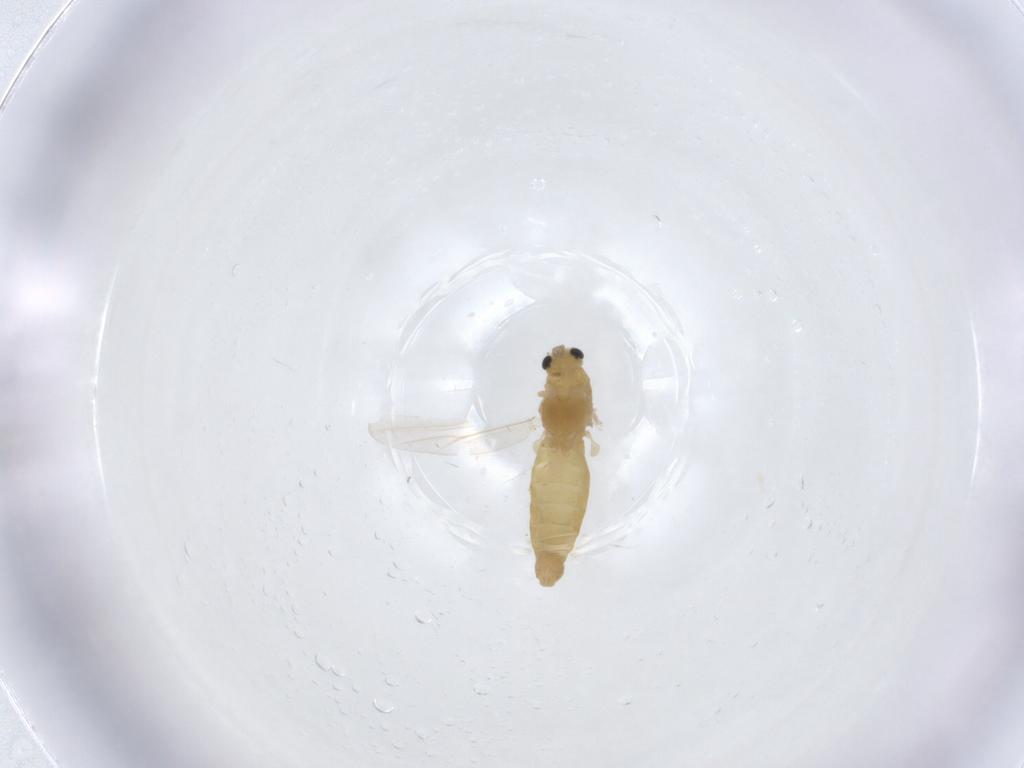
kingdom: Animalia
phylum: Arthropoda
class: Insecta
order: Diptera
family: Chironomidae
